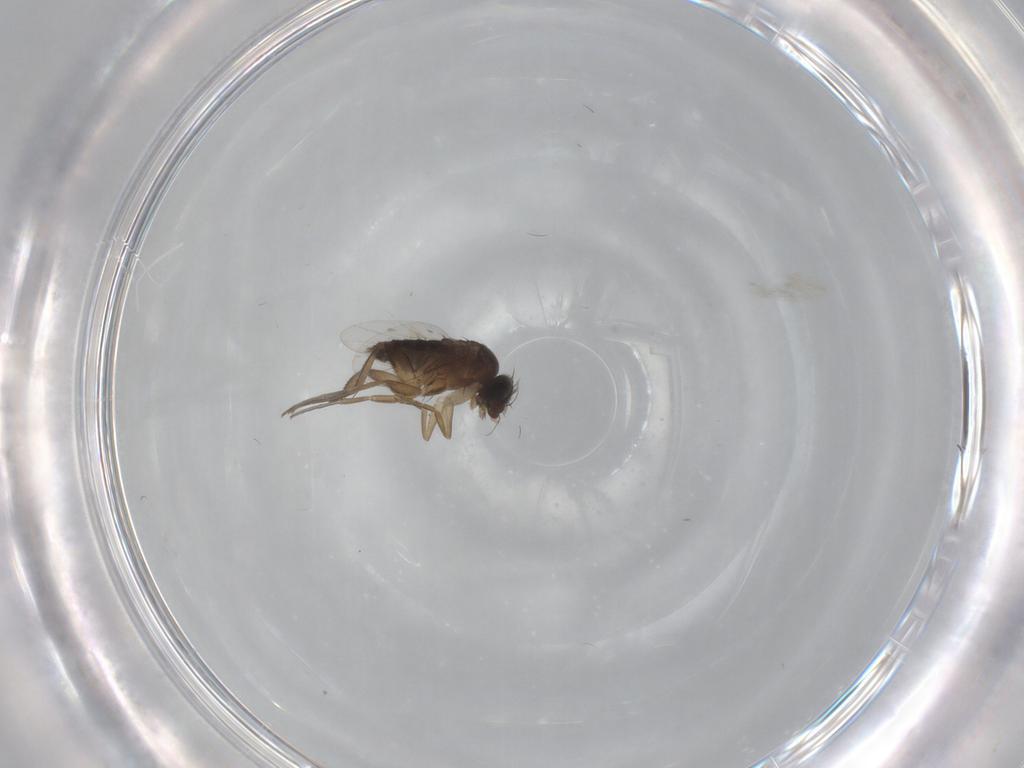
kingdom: Animalia
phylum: Arthropoda
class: Insecta
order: Diptera
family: Phoridae
